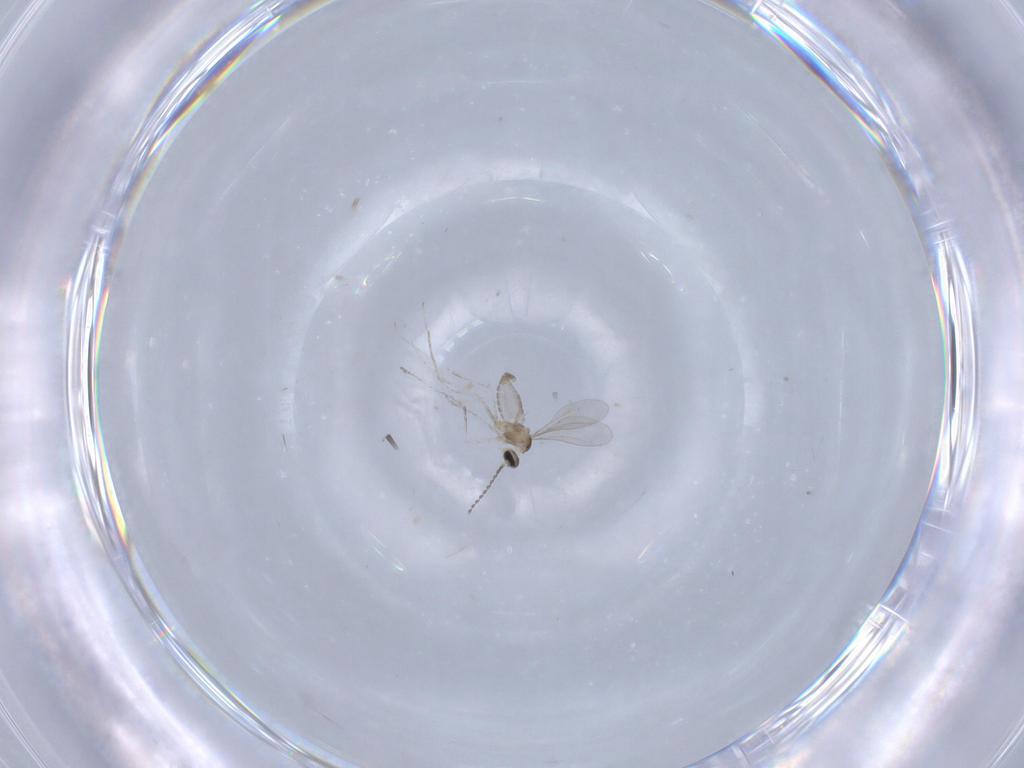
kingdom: Animalia
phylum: Arthropoda
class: Insecta
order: Diptera
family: Cecidomyiidae
